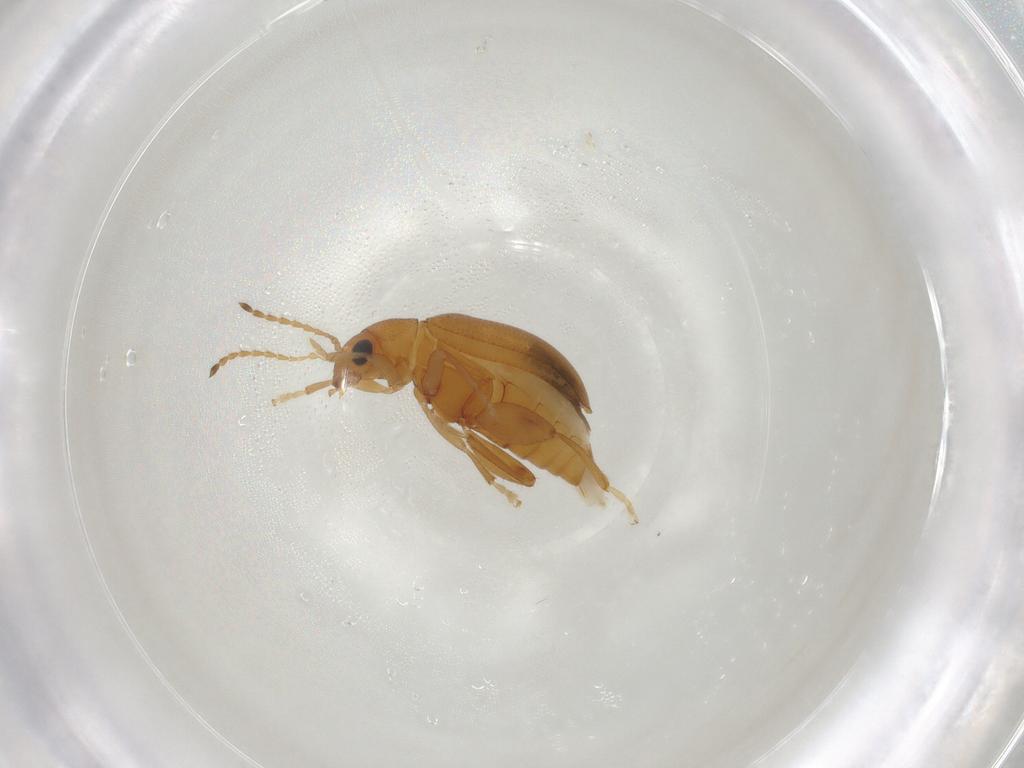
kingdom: Animalia
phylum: Arthropoda
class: Insecta
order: Coleoptera
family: Chrysomelidae
